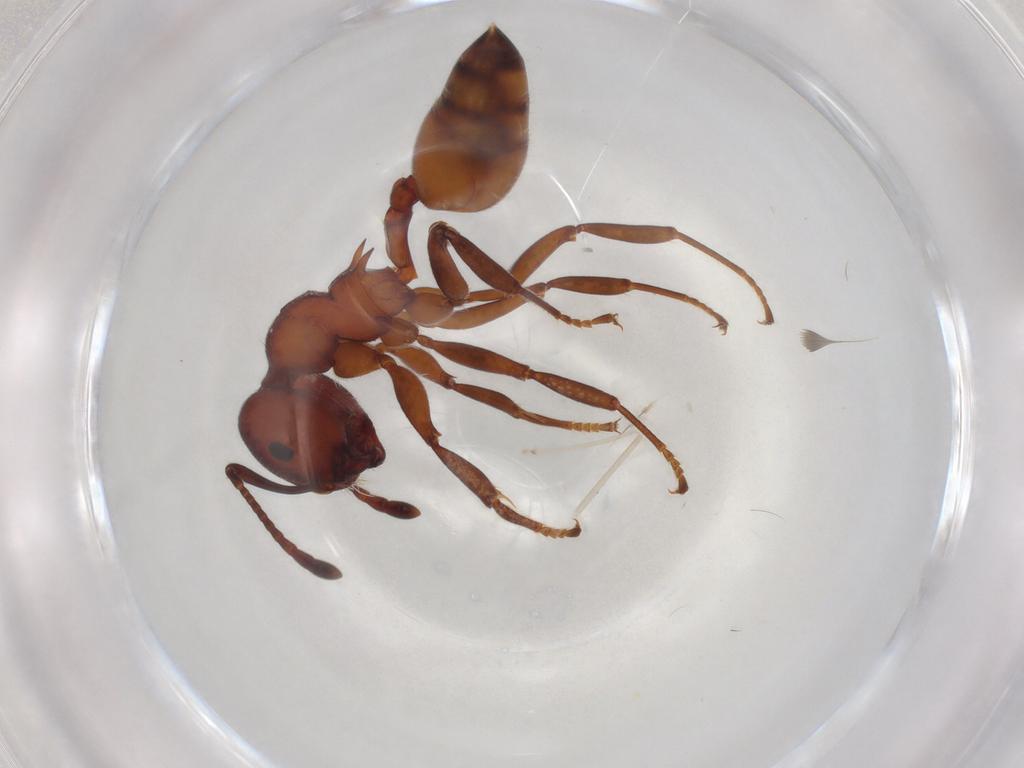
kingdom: Animalia
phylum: Arthropoda
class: Insecta
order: Hymenoptera
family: Formicidae
